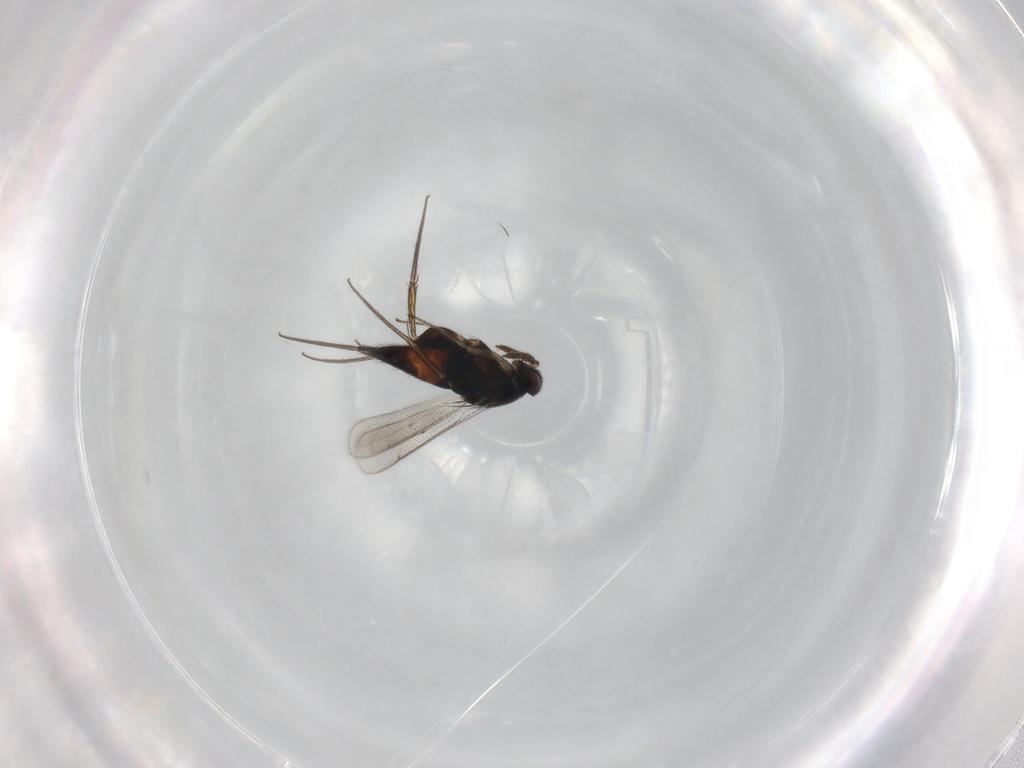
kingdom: Animalia
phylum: Arthropoda
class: Insecta
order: Hymenoptera
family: Eulophidae
